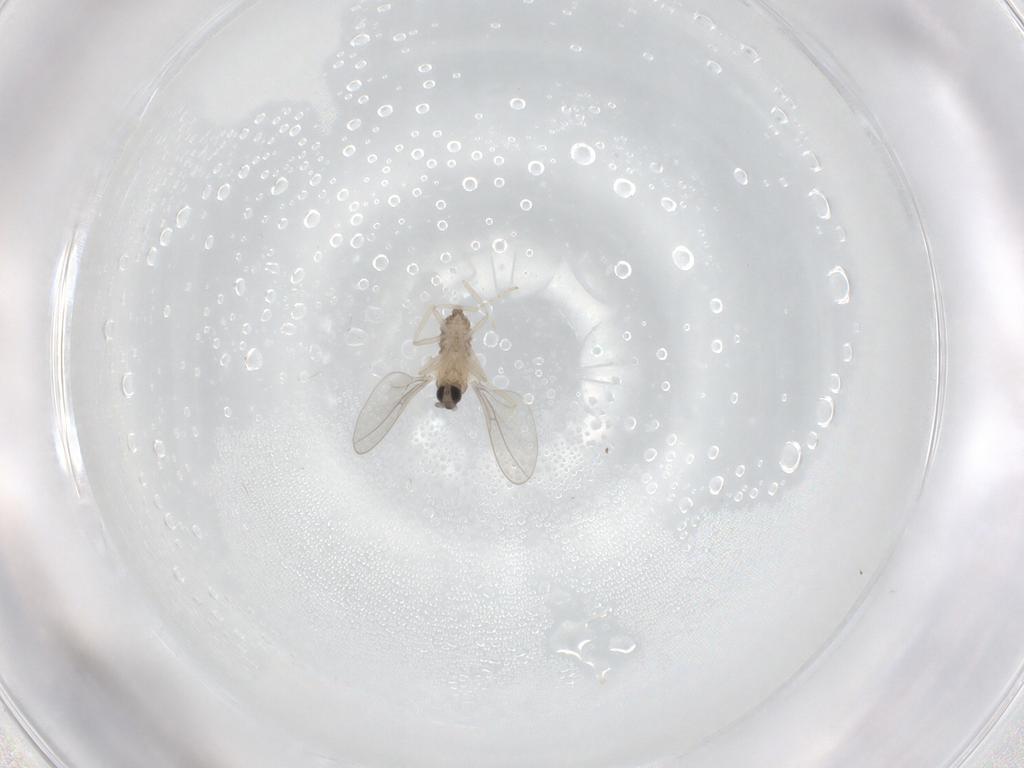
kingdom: Animalia
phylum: Arthropoda
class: Insecta
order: Diptera
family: Cecidomyiidae
